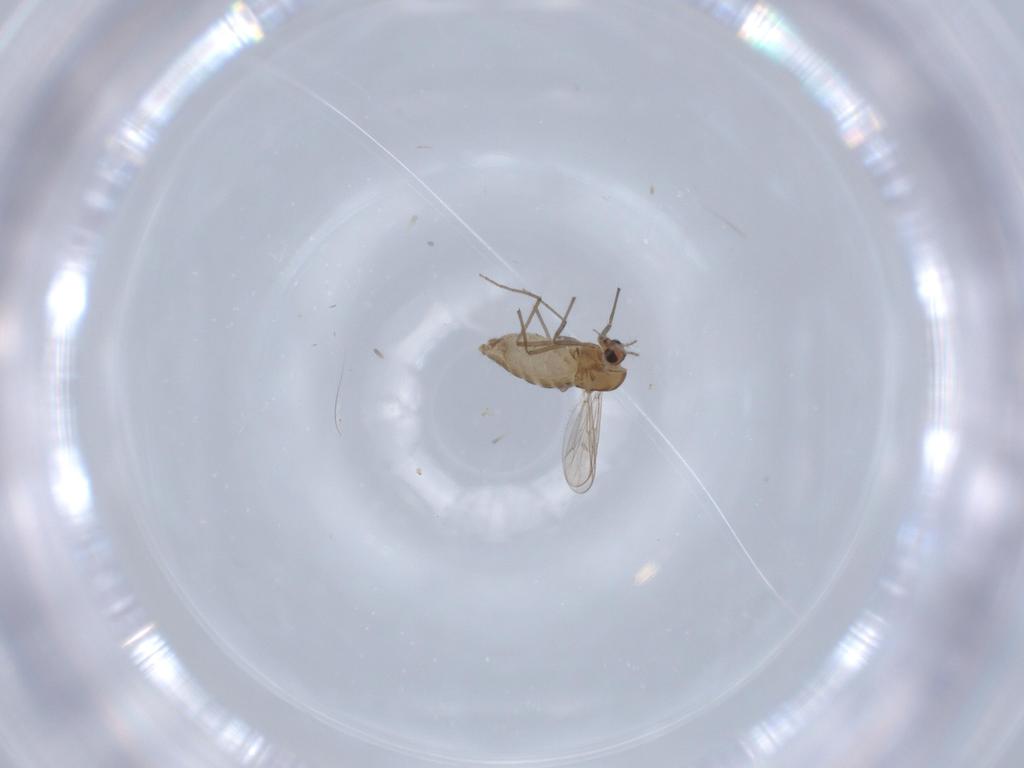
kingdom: Animalia
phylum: Arthropoda
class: Insecta
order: Diptera
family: Chironomidae
